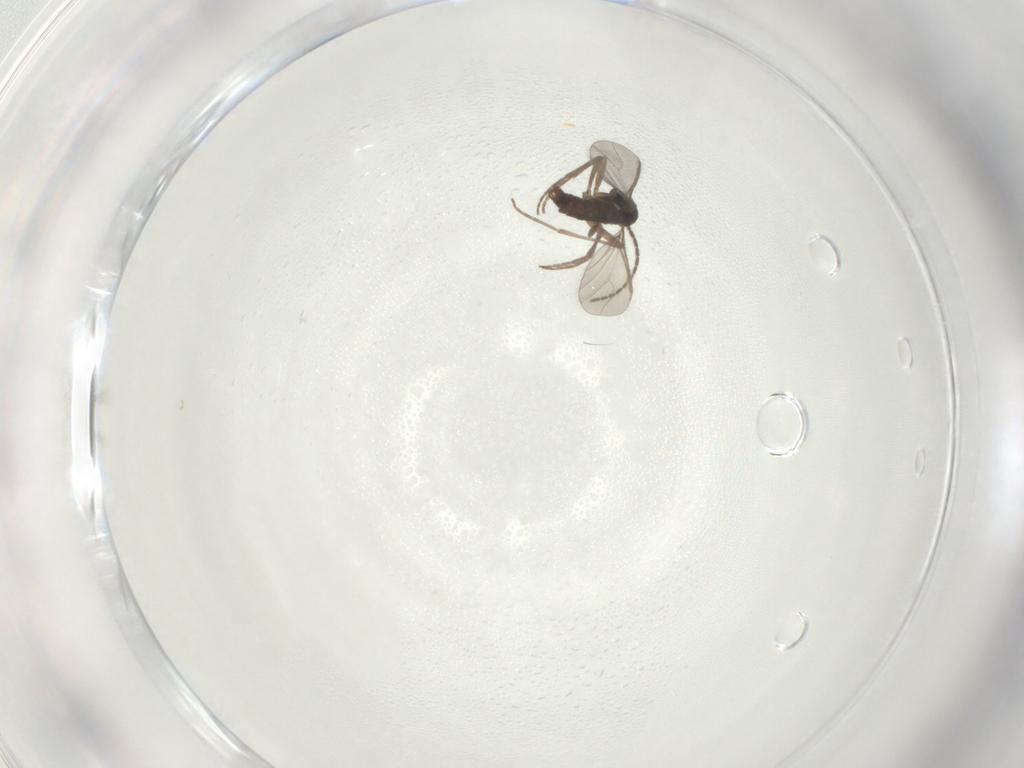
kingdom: Animalia
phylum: Arthropoda
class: Insecta
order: Diptera
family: Sciaridae
